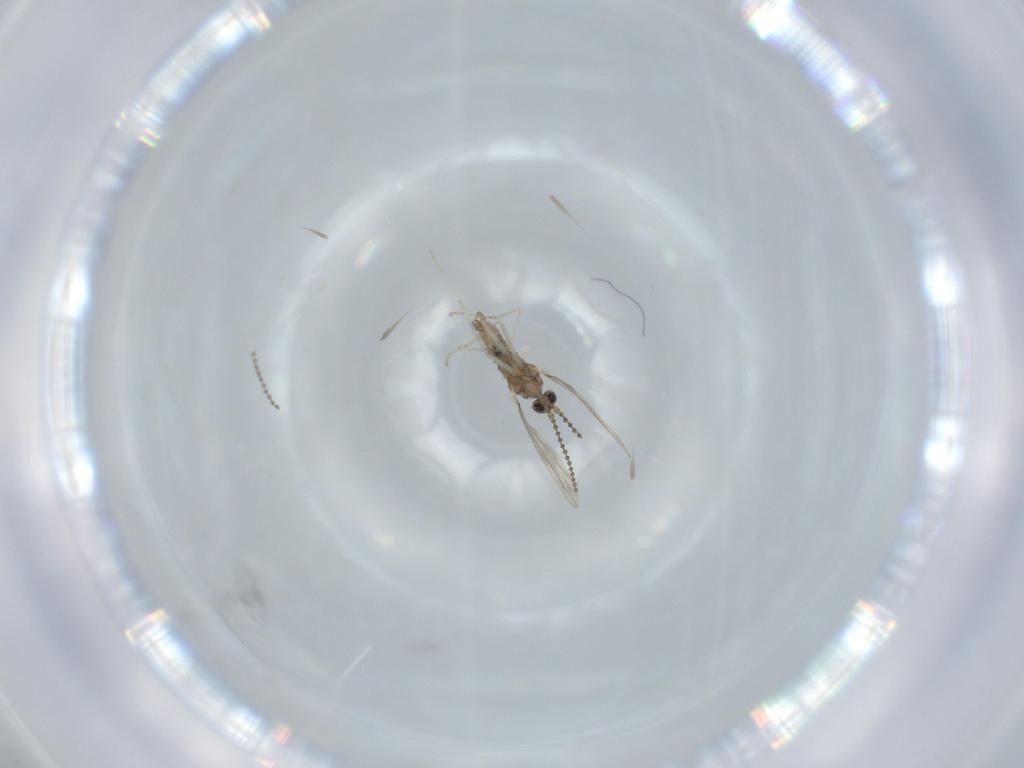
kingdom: Animalia
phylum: Arthropoda
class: Insecta
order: Diptera
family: Cecidomyiidae
